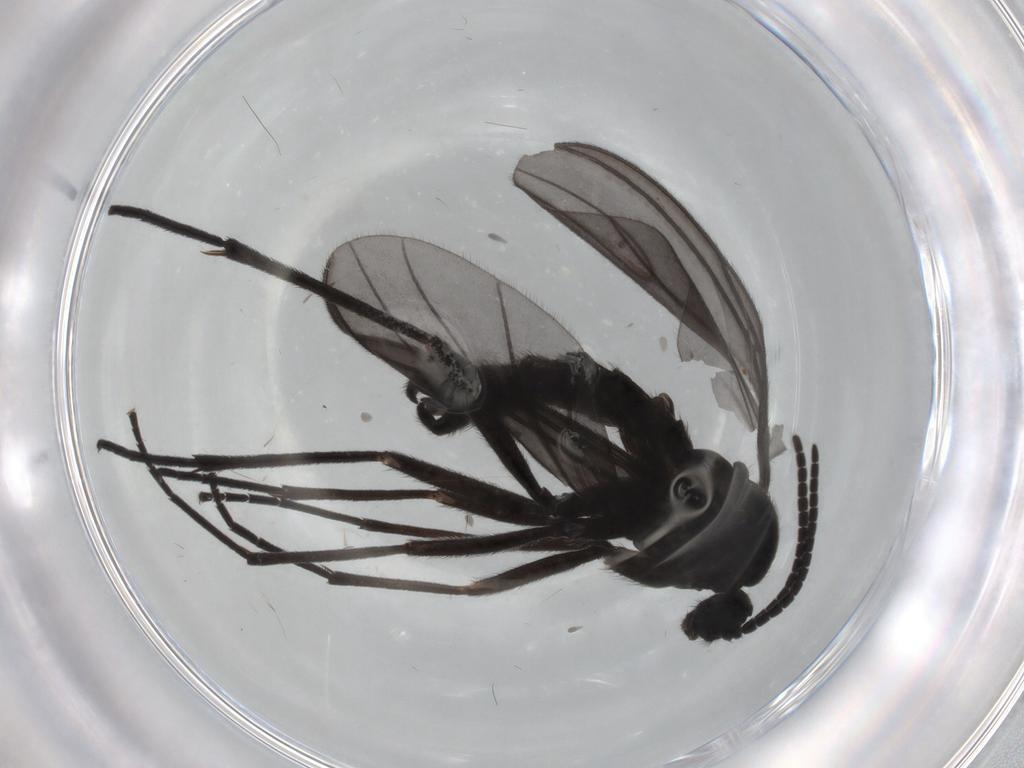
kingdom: Animalia
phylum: Arthropoda
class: Insecta
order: Diptera
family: Sciaridae
